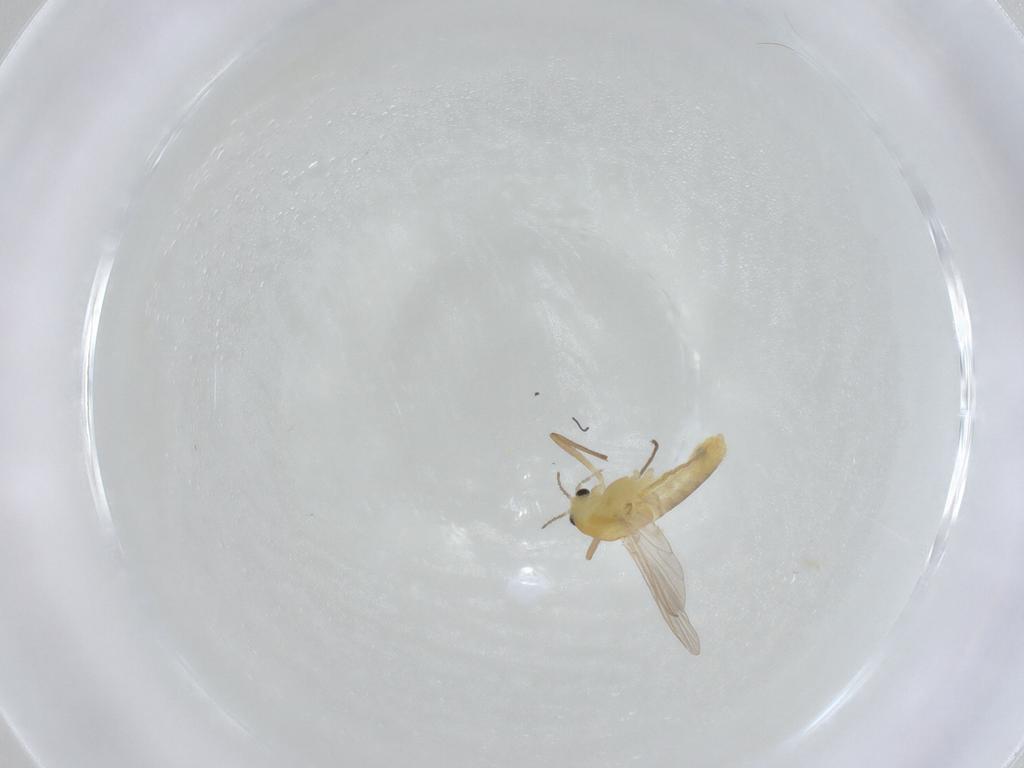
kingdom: Animalia
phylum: Arthropoda
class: Insecta
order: Diptera
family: Chironomidae
